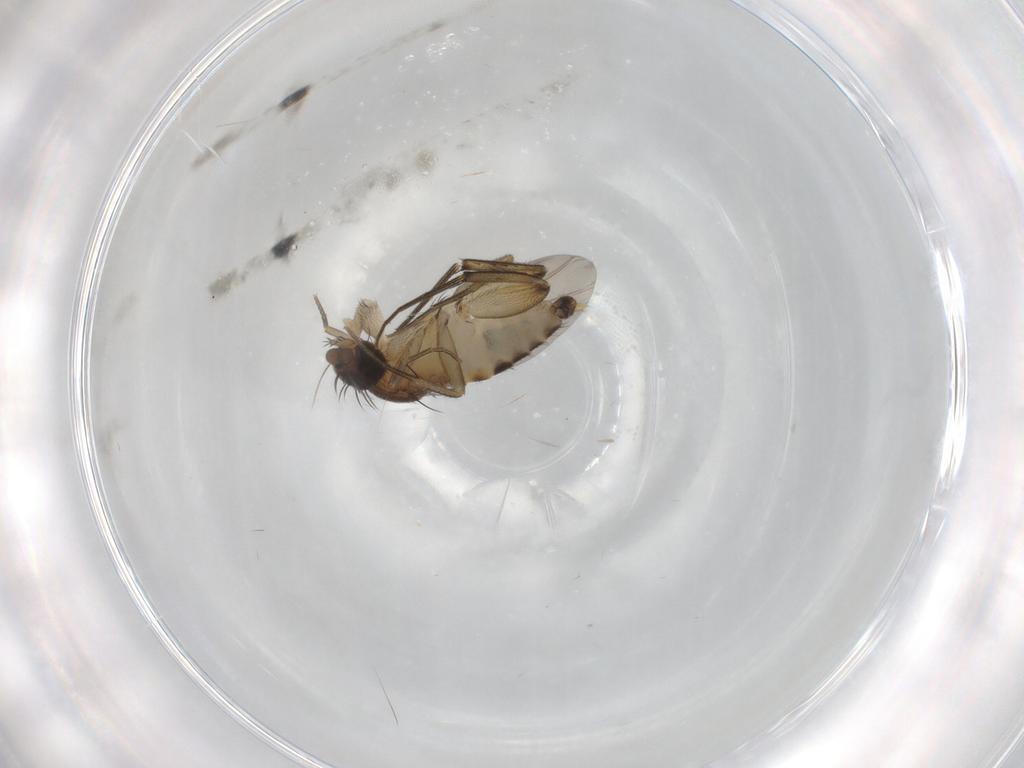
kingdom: Animalia
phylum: Arthropoda
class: Insecta
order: Diptera
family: Phoridae
